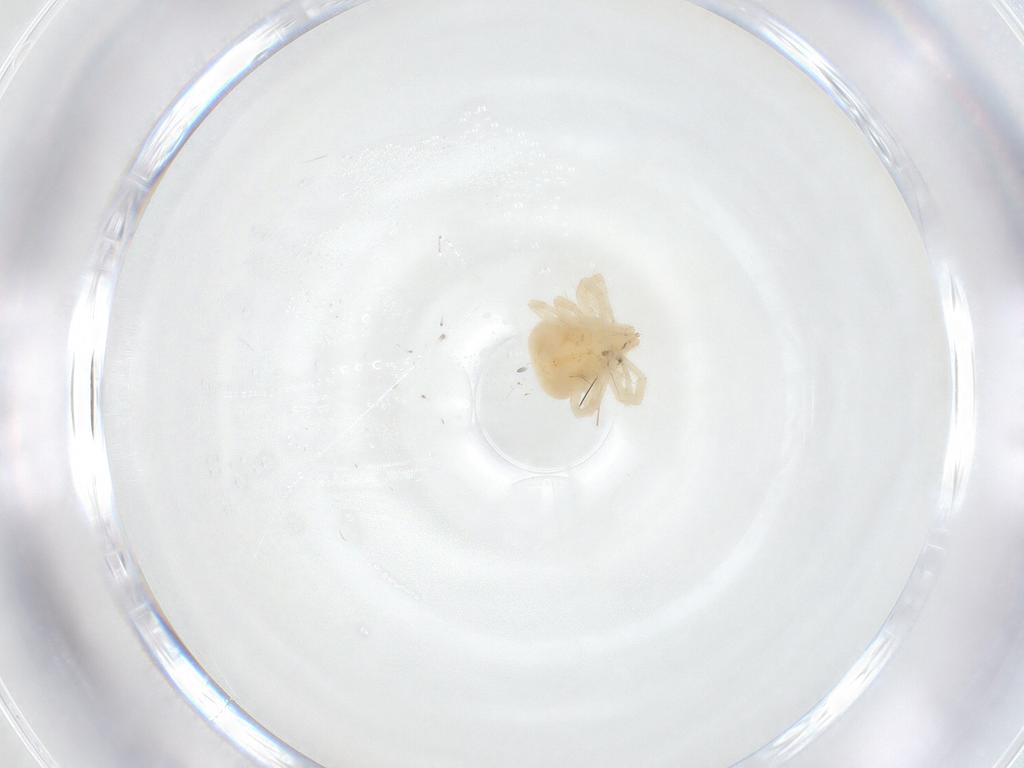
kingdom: Animalia
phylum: Arthropoda
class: Arachnida
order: Trombidiformes
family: Anystidae
